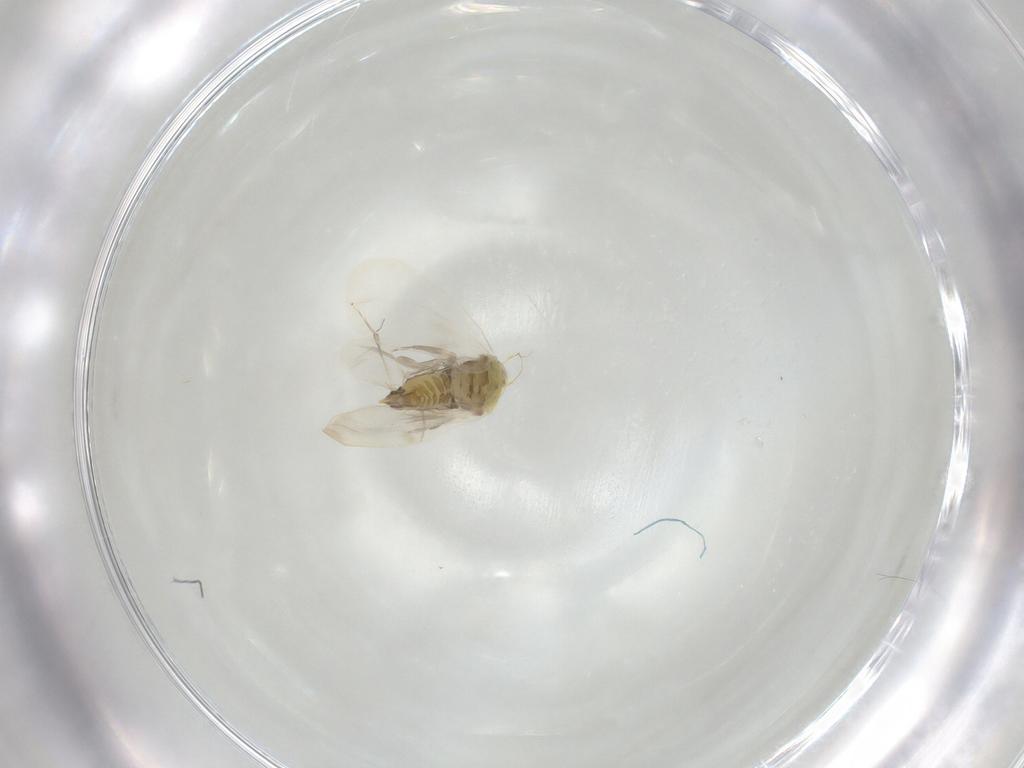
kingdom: Animalia
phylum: Arthropoda
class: Insecta
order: Hemiptera
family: Aleyrodidae
